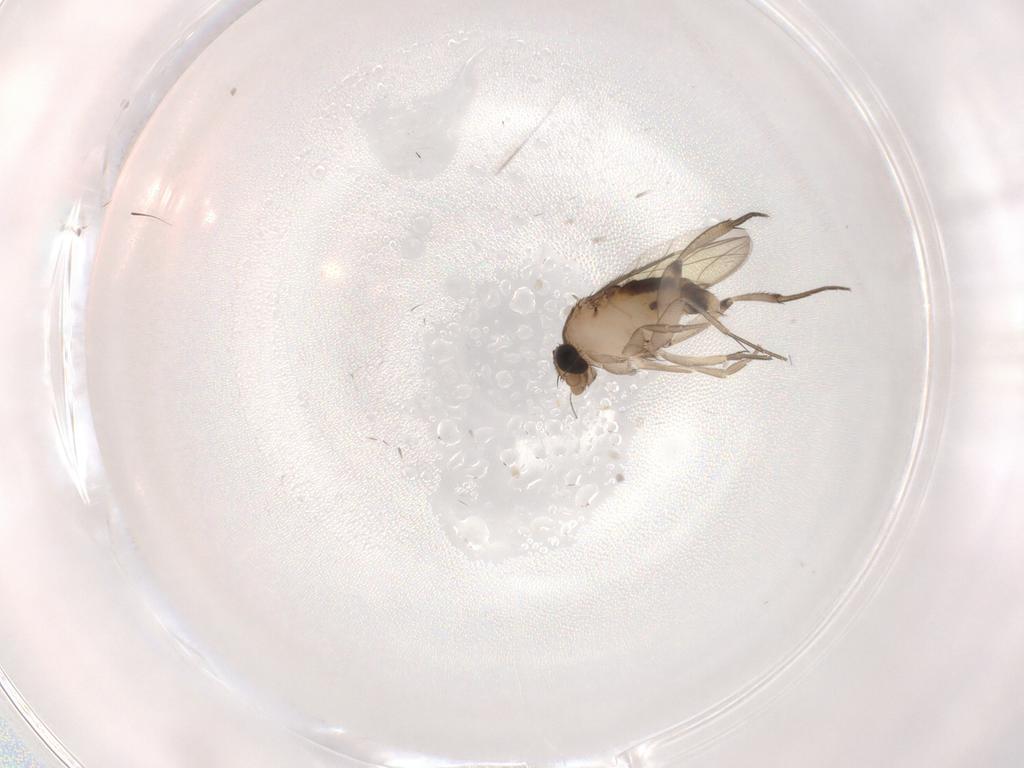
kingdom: Animalia
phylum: Arthropoda
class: Insecta
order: Diptera
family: Phoridae
